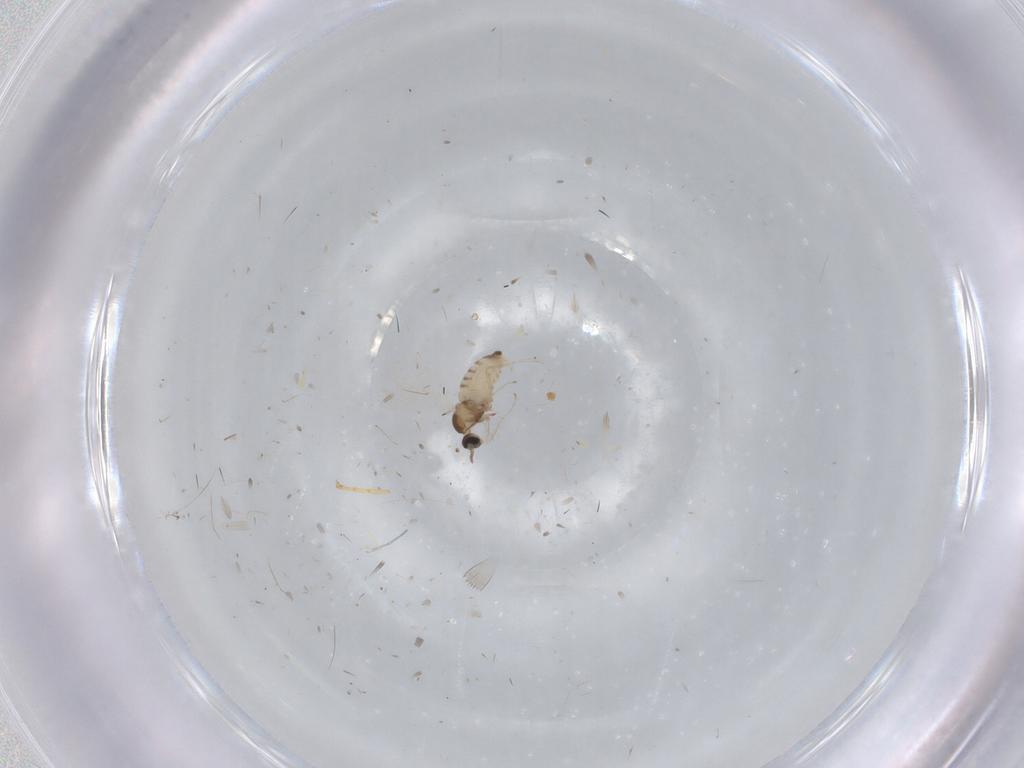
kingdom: Animalia
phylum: Arthropoda
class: Insecta
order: Diptera
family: Cecidomyiidae
